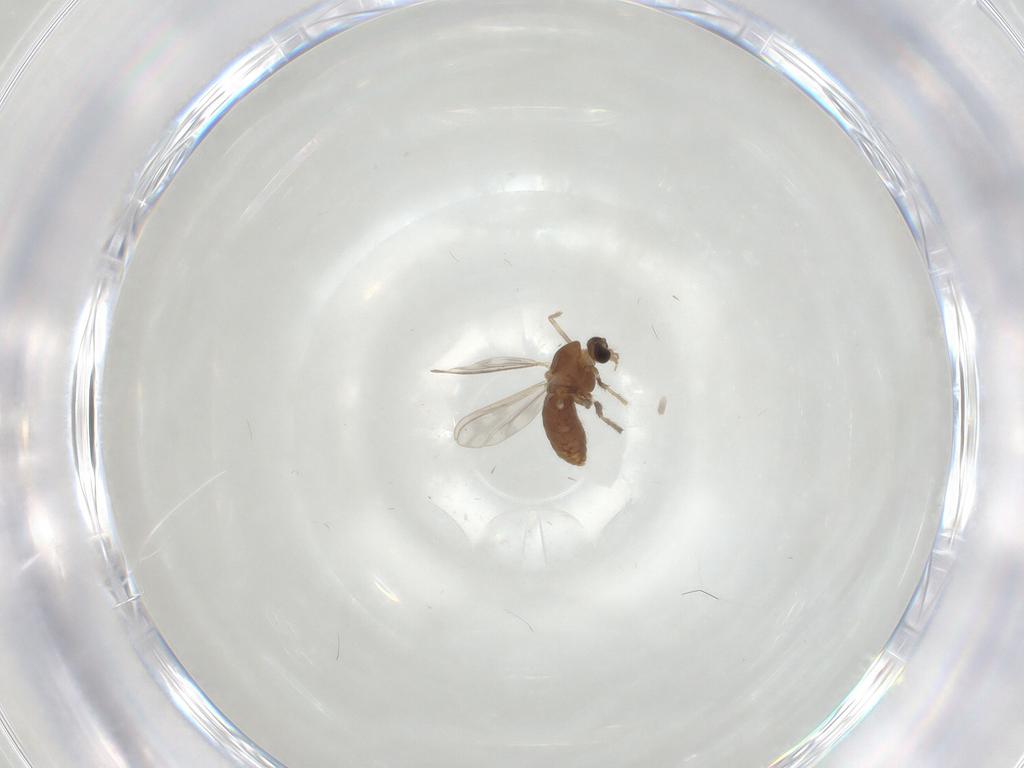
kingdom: Animalia
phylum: Arthropoda
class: Insecta
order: Diptera
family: Chironomidae
